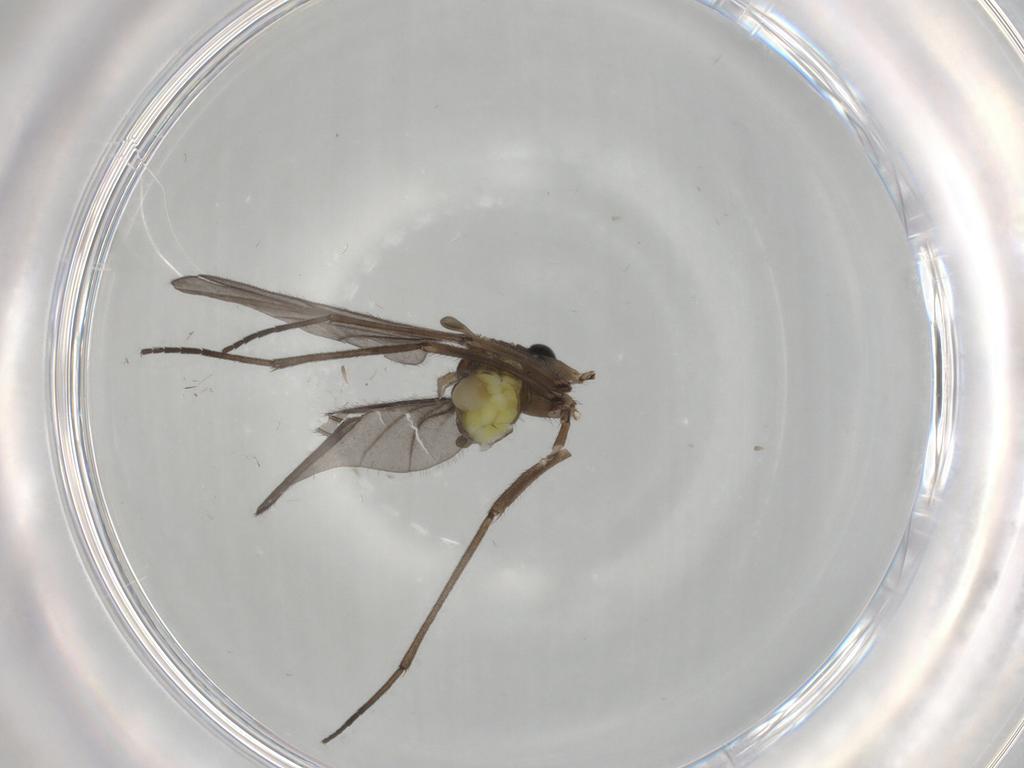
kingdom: Animalia
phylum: Arthropoda
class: Insecta
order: Diptera
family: Sciaridae
